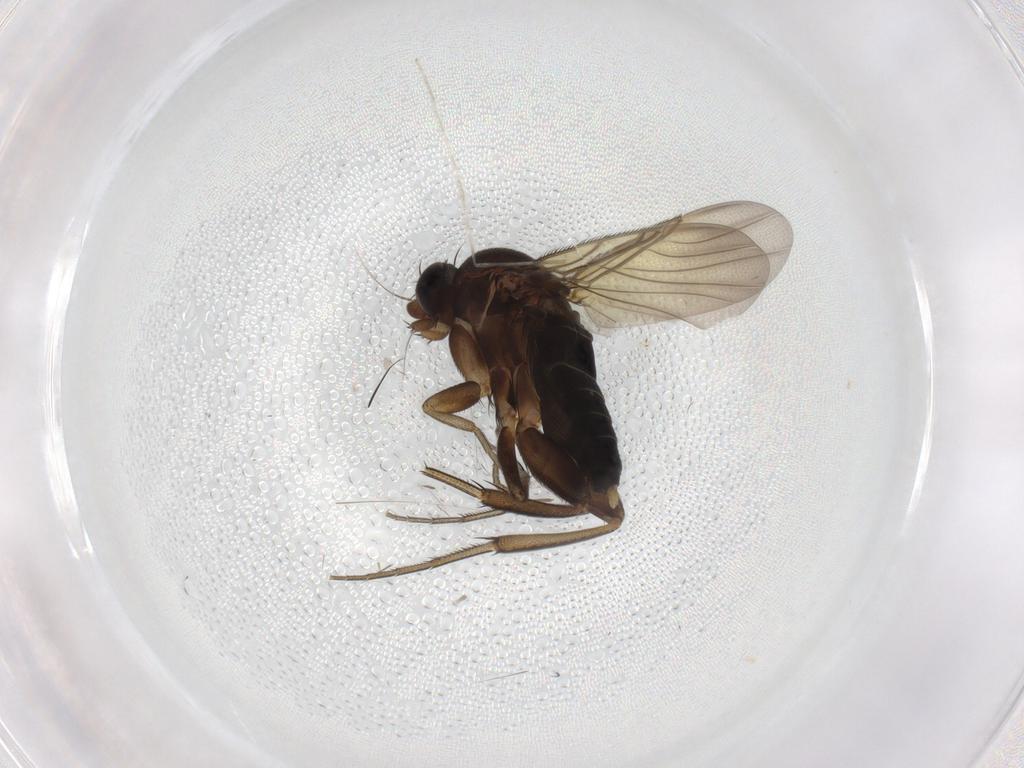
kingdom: Animalia
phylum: Arthropoda
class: Insecta
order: Diptera
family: Phoridae
